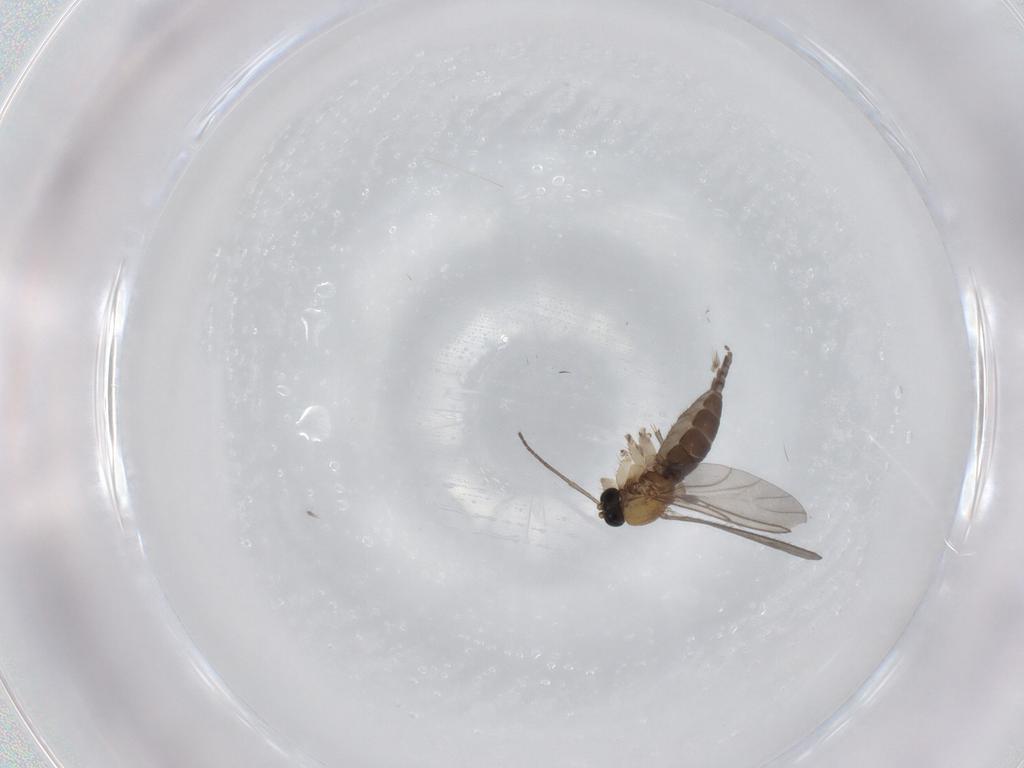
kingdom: Animalia
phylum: Arthropoda
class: Insecta
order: Diptera
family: Sciaridae
